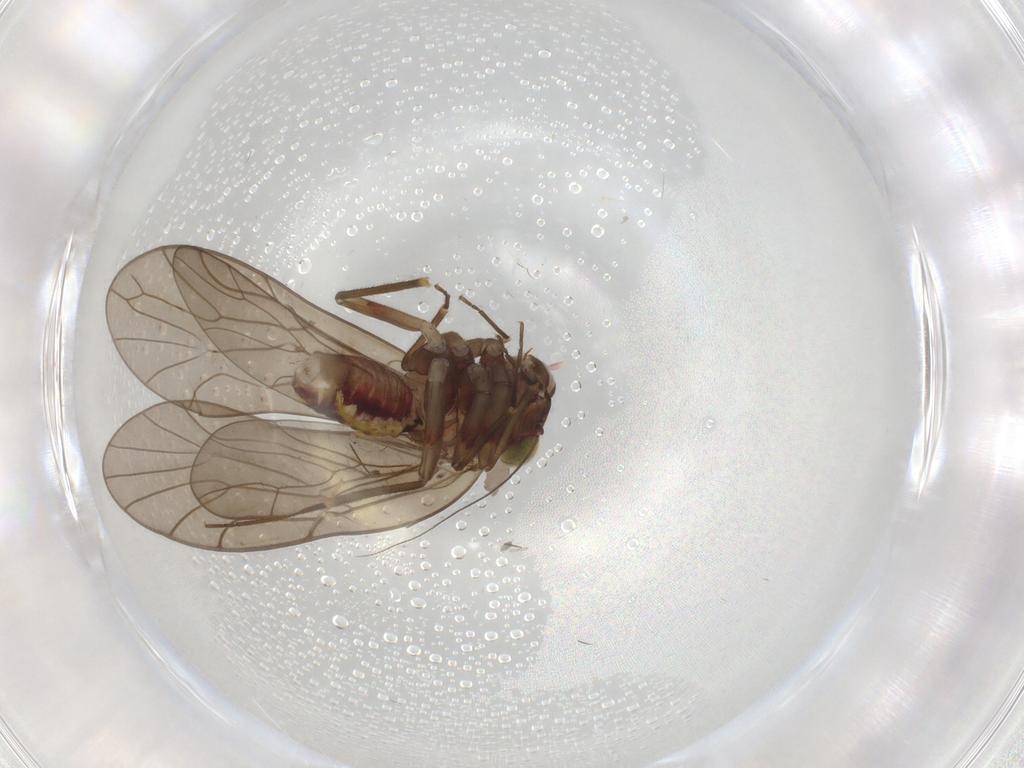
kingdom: Animalia
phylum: Arthropoda
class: Insecta
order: Psocodea
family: Philotarsidae
